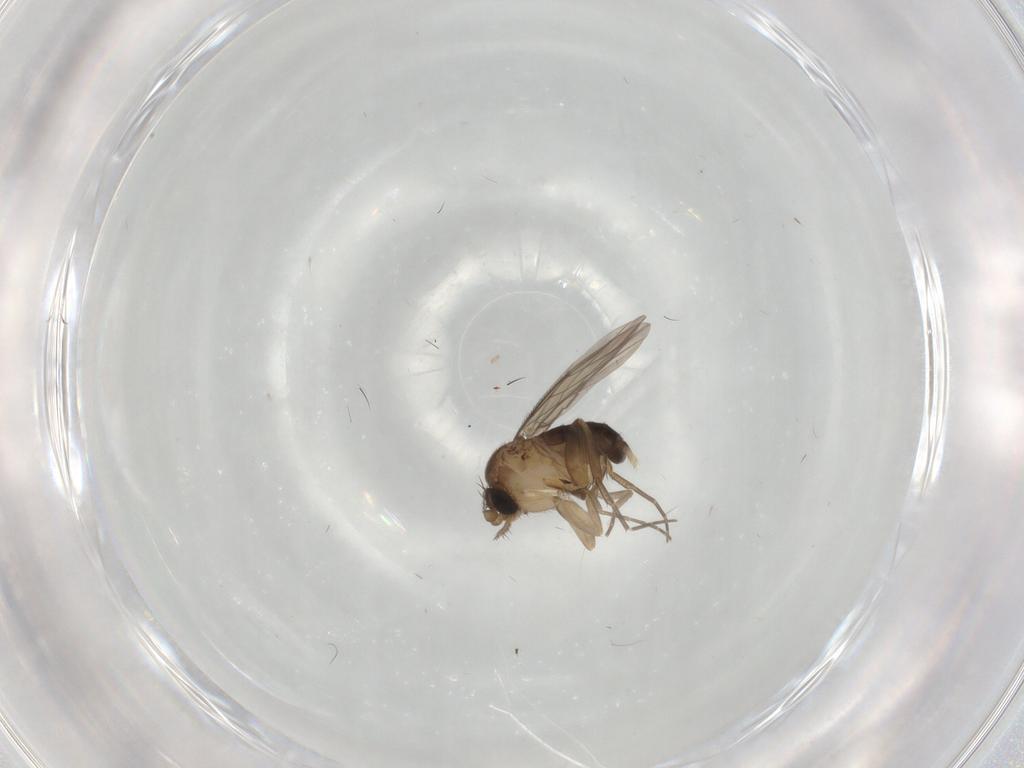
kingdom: Animalia
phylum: Arthropoda
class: Insecta
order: Diptera
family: Phoridae
